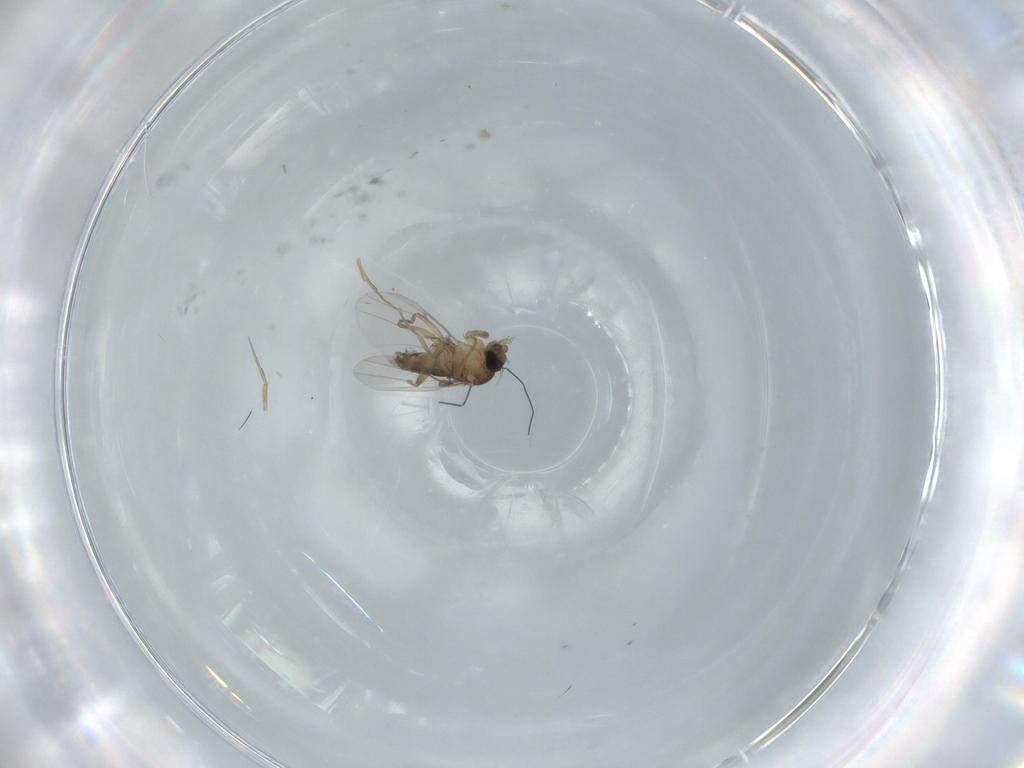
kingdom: Animalia
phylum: Arthropoda
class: Insecta
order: Diptera
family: Phoridae
